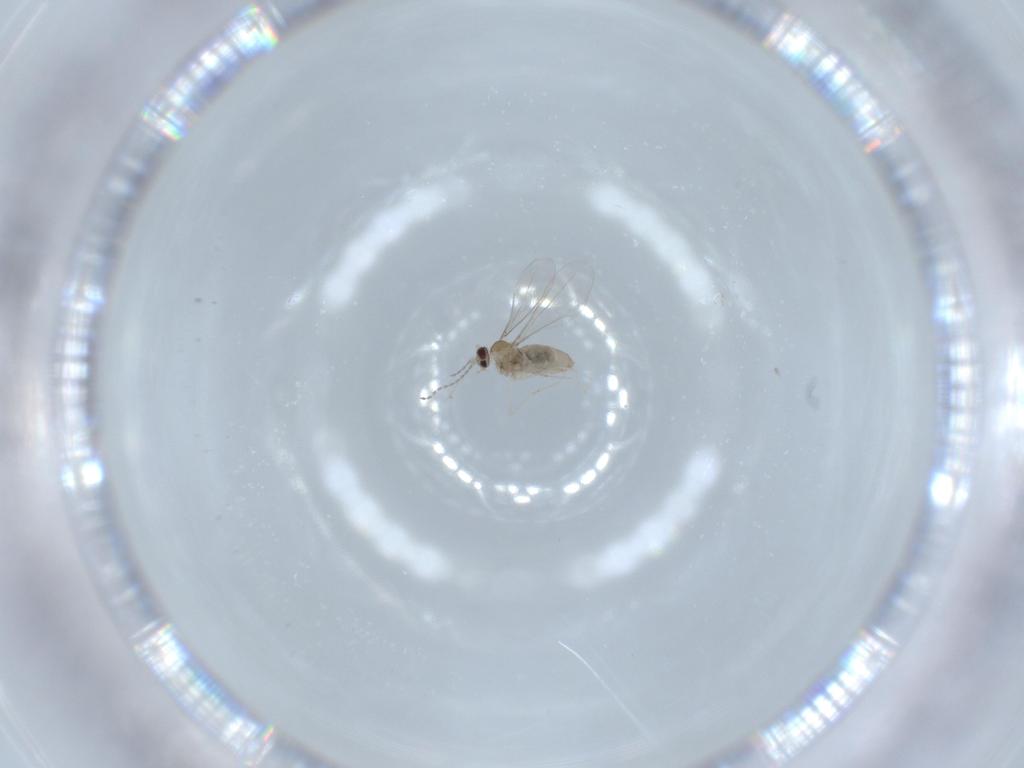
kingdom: Animalia
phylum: Arthropoda
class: Insecta
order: Diptera
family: Cecidomyiidae
